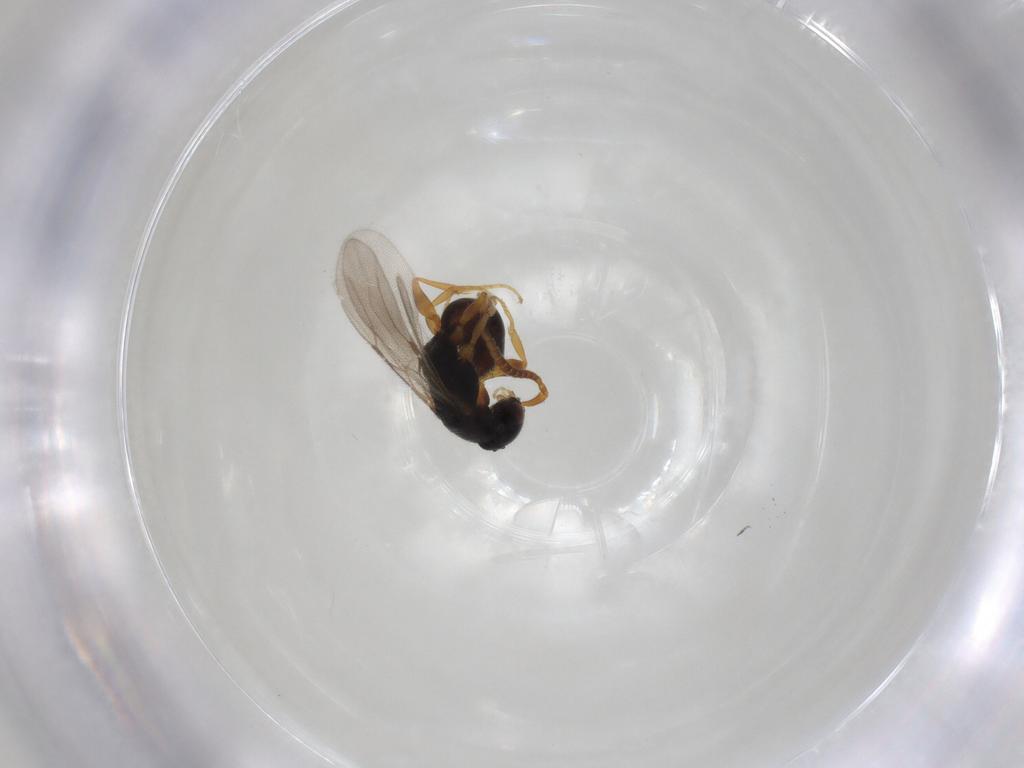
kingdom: Animalia
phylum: Arthropoda
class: Insecta
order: Hymenoptera
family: Bethylidae
